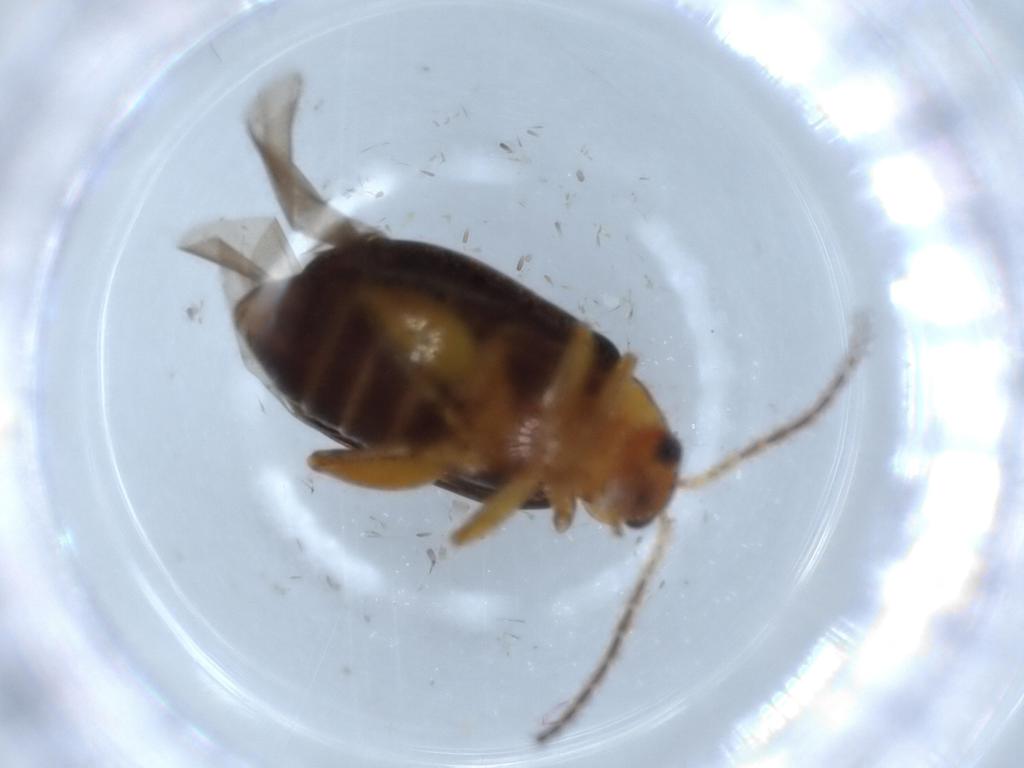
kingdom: Animalia
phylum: Arthropoda
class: Insecta
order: Coleoptera
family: Chrysomelidae
